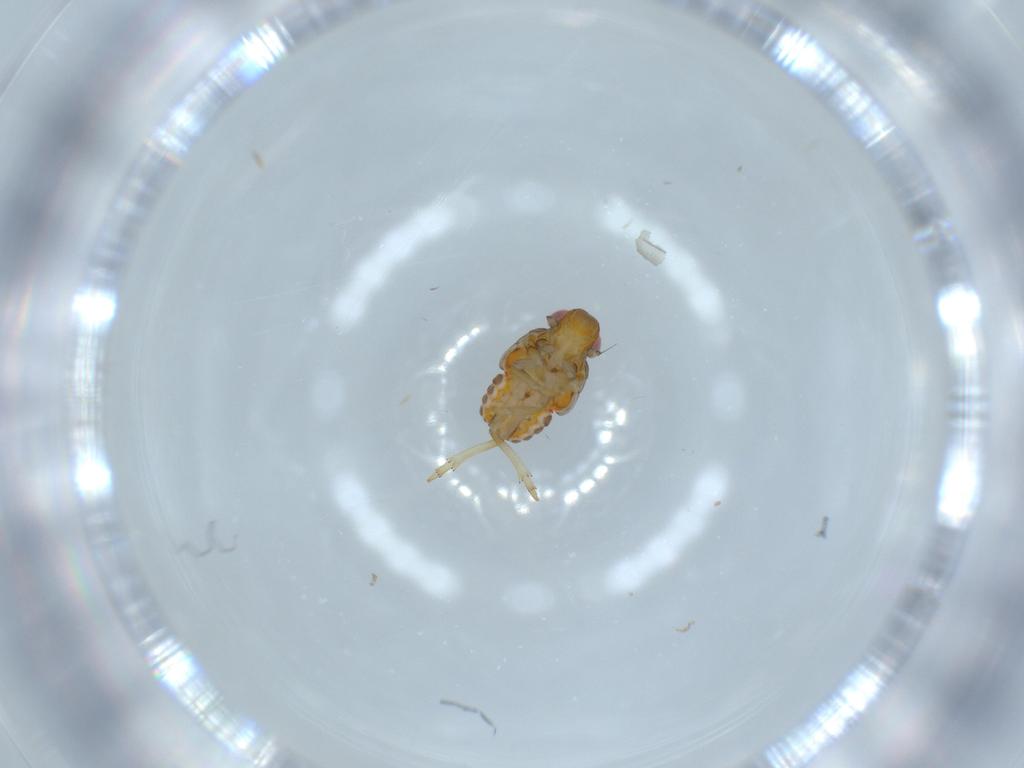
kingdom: Animalia
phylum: Arthropoda
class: Insecta
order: Hemiptera
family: Issidae
